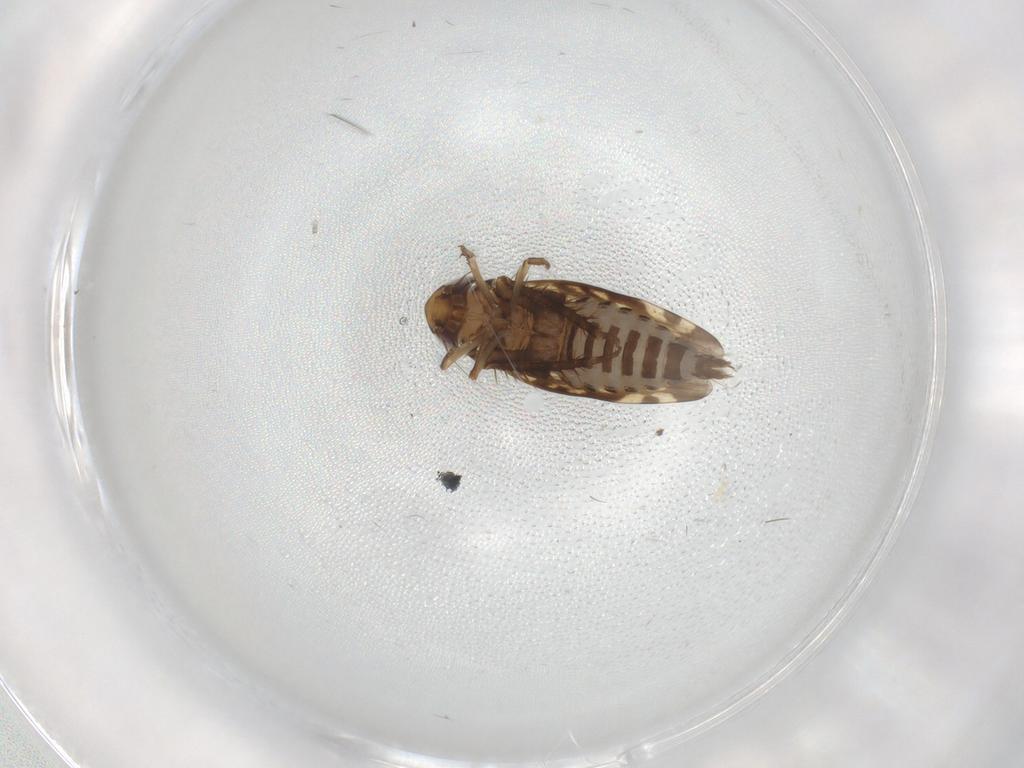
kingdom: Animalia
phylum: Arthropoda
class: Insecta
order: Hemiptera
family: Cicadellidae
